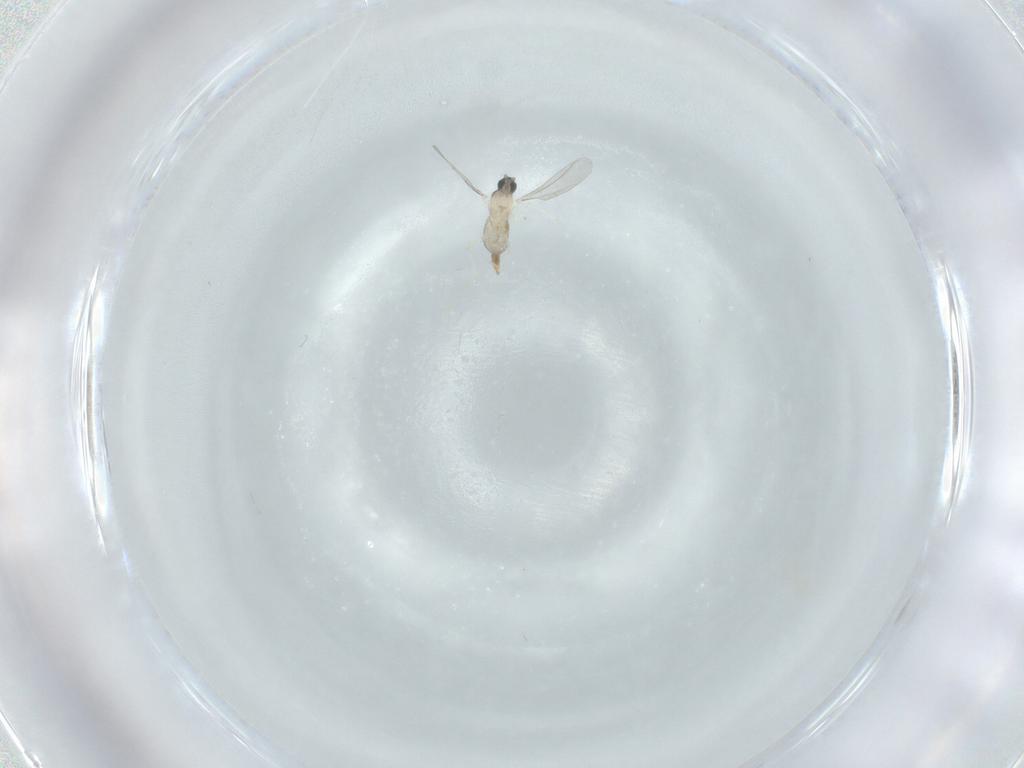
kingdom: Animalia
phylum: Arthropoda
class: Insecta
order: Diptera
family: Cecidomyiidae
